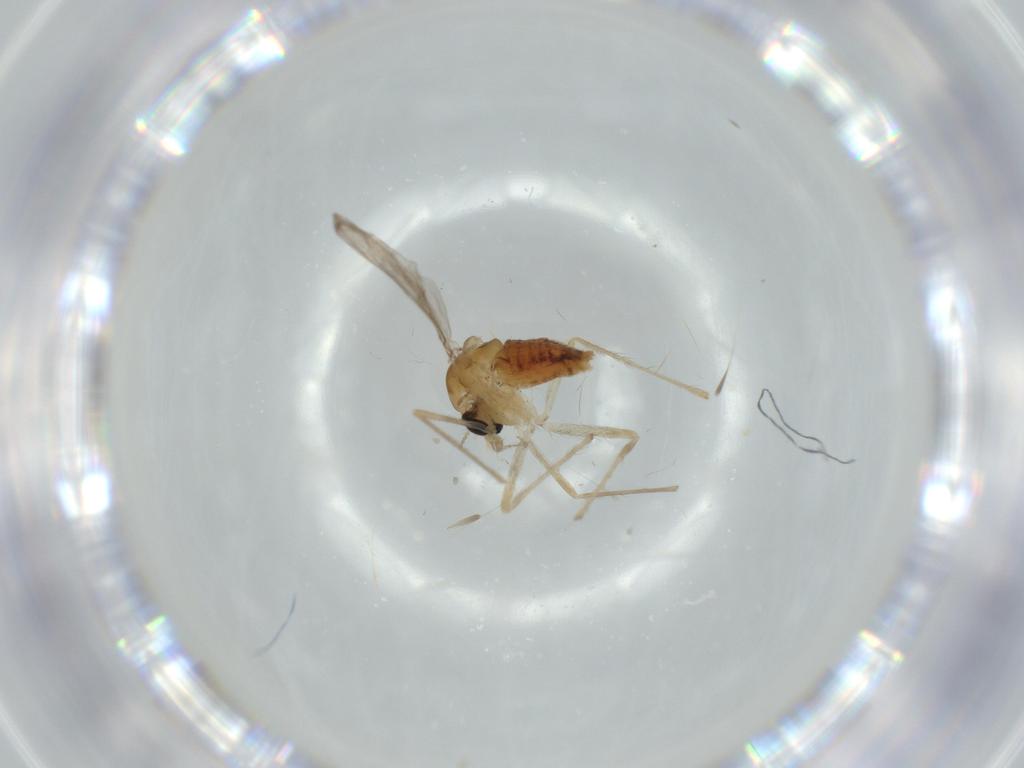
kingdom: Animalia
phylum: Arthropoda
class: Insecta
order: Diptera
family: Chironomidae
